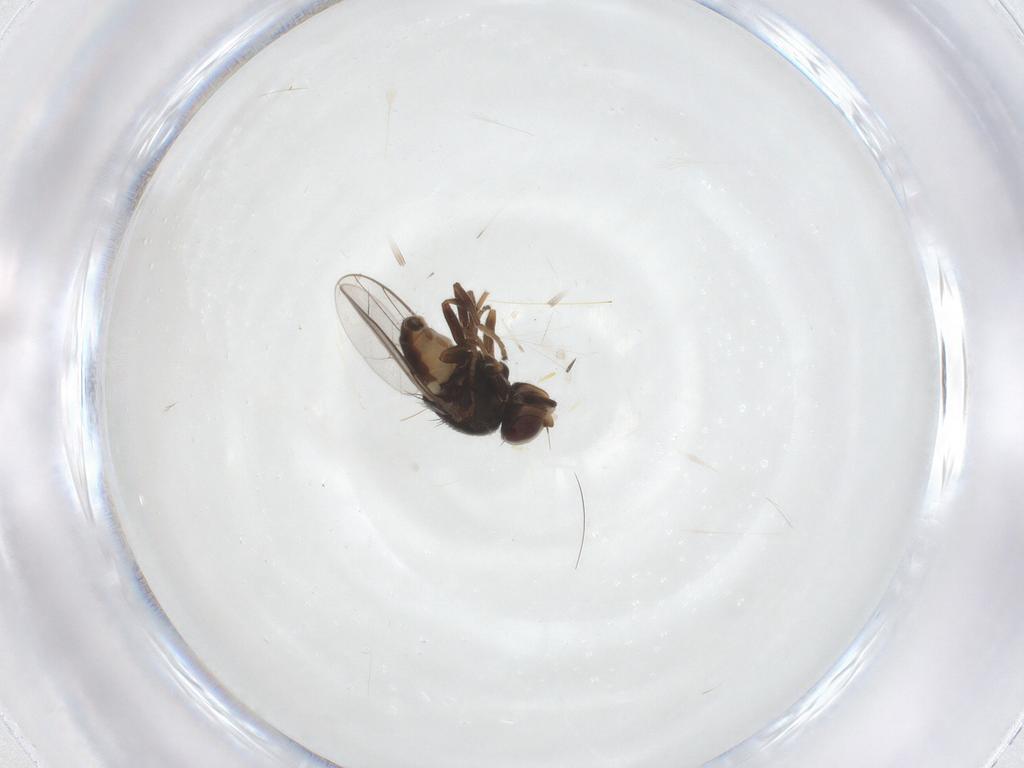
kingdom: Animalia
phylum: Arthropoda
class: Insecta
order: Diptera
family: Chloropidae
